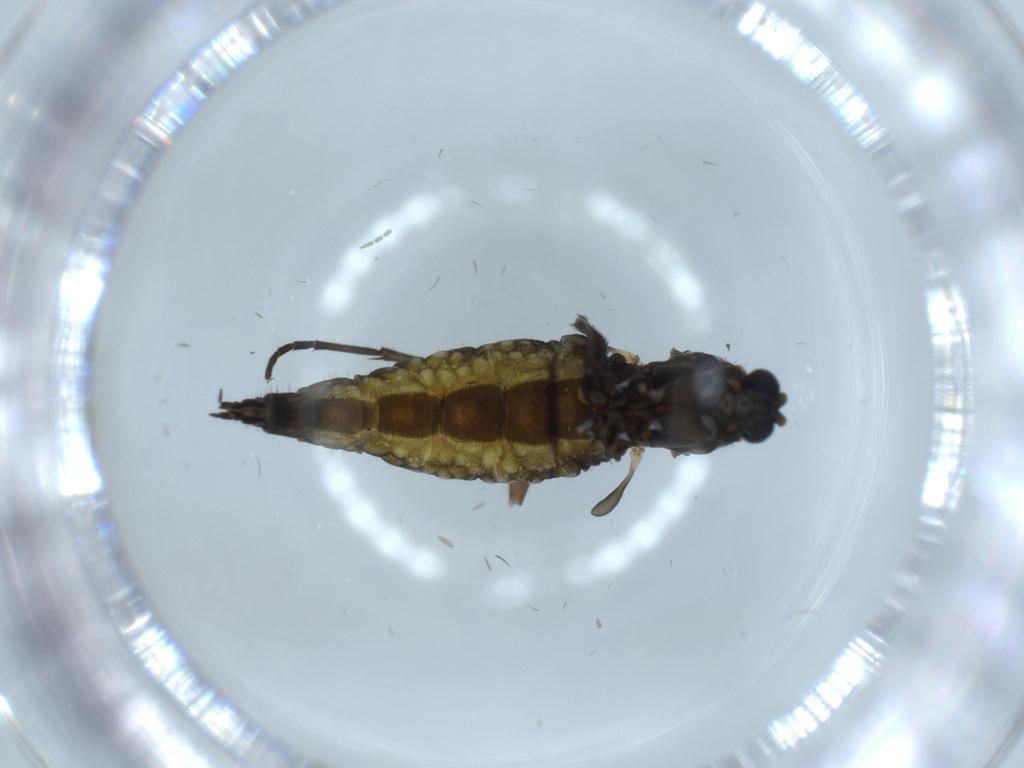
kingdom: Animalia
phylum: Arthropoda
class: Insecta
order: Diptera
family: Sciaridae
